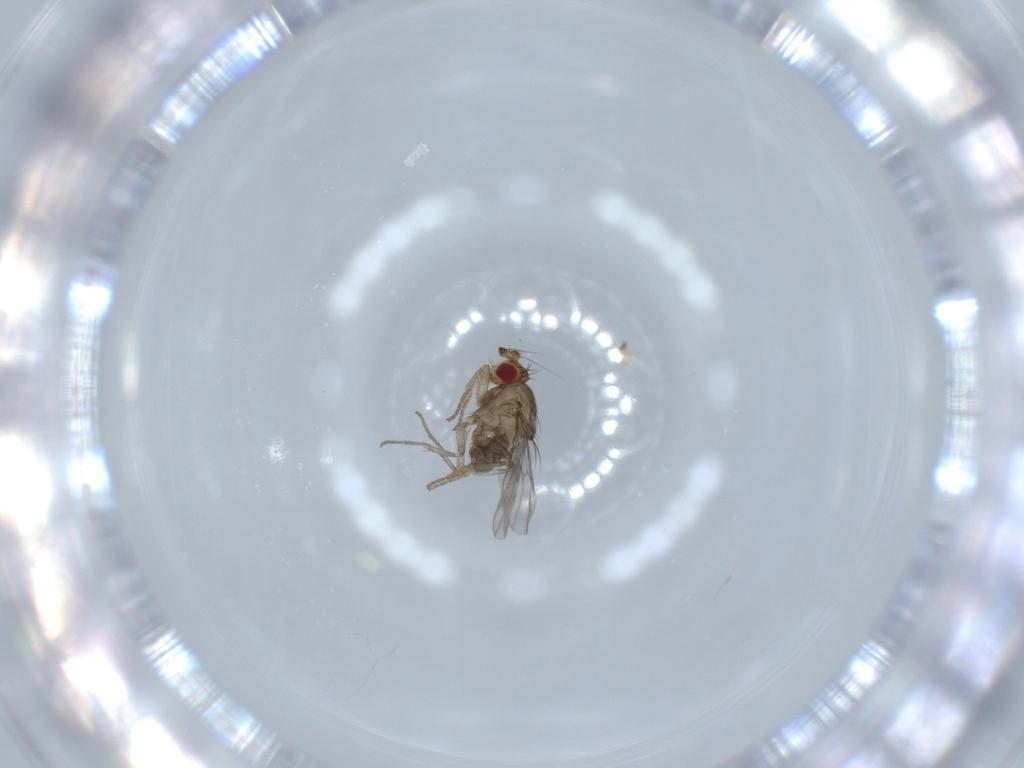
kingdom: Animalia
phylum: Arthropoda
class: Insecta
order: Diptera
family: Sphaeroceridae
